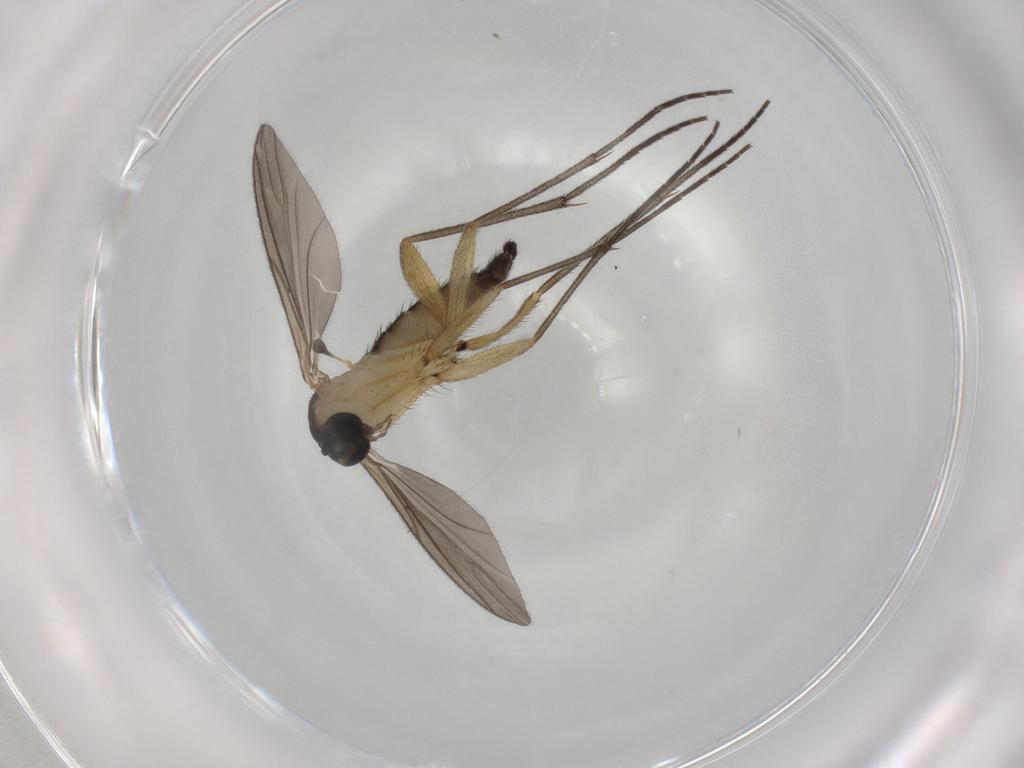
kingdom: Animalia
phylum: Arthropoda
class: Insecta
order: Diptera
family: Sciaridae
